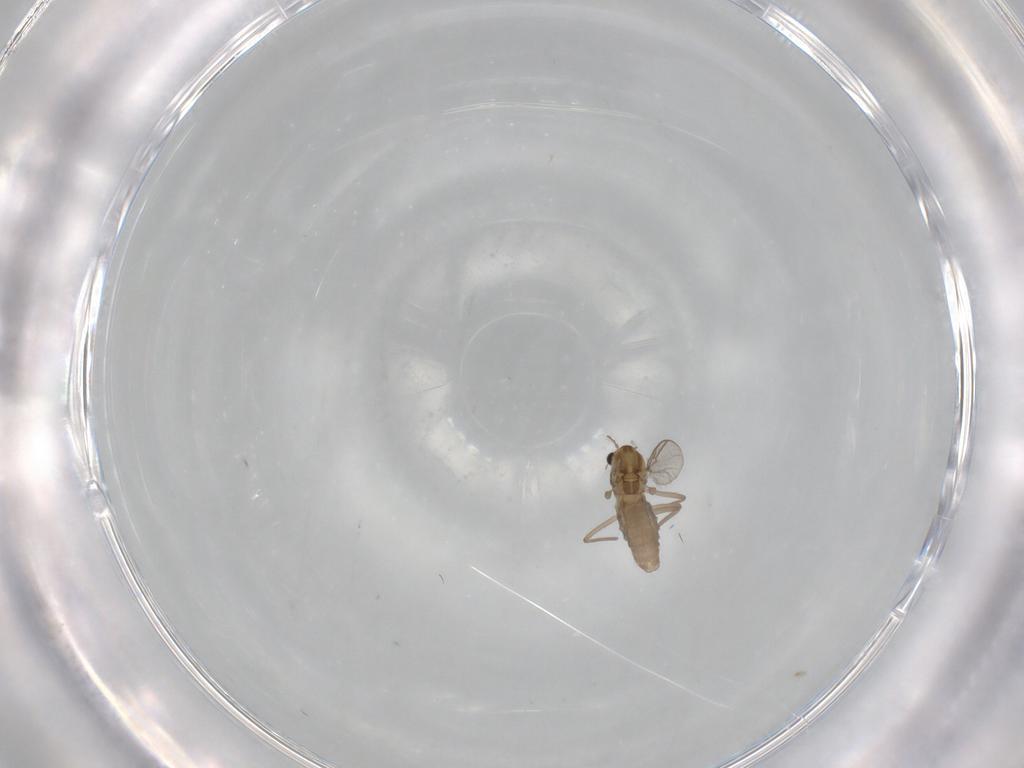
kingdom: Animalia
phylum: Arthropoda
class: Insecta
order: Diptera
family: Chironomidae
